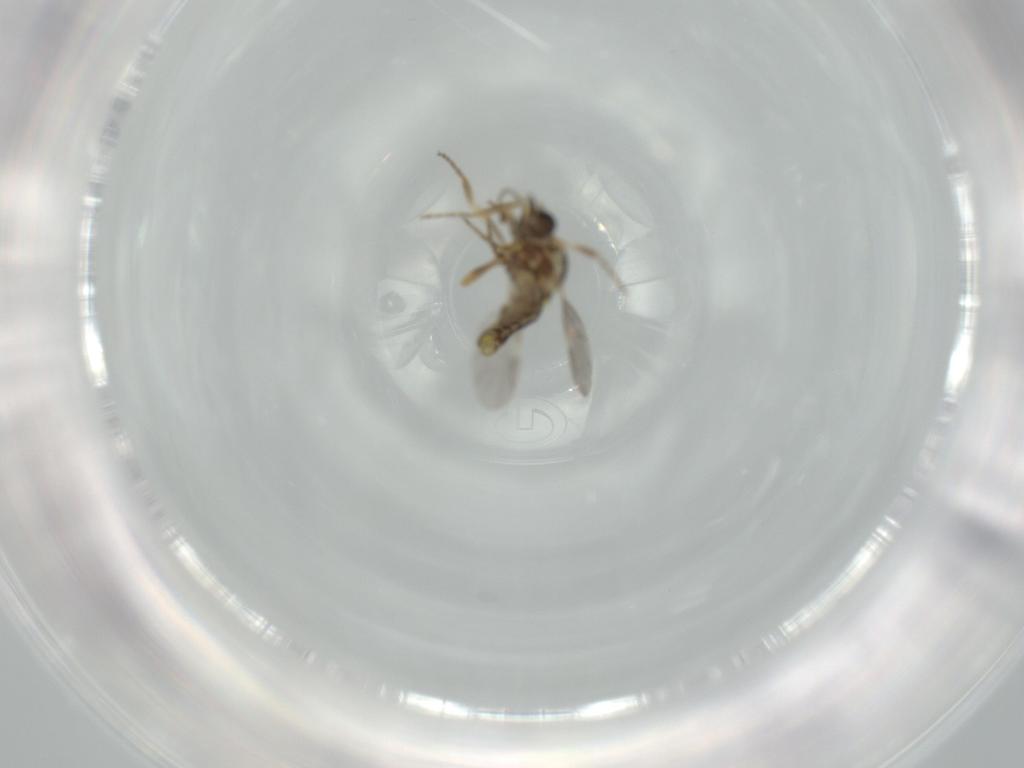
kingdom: Animalia
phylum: Arthropoda
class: Insecta
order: Diptera
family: Ceratopogonidae
